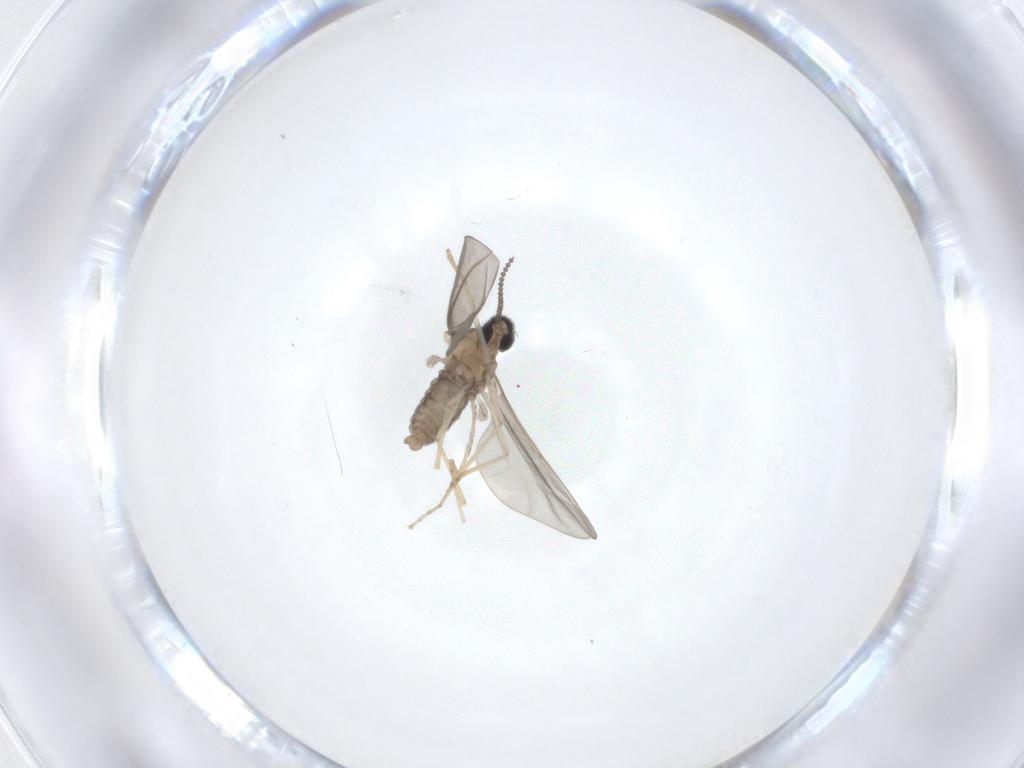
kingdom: Animalia
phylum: Arthropoda
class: Insecta
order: Diptera
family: Cecidomyiidae
